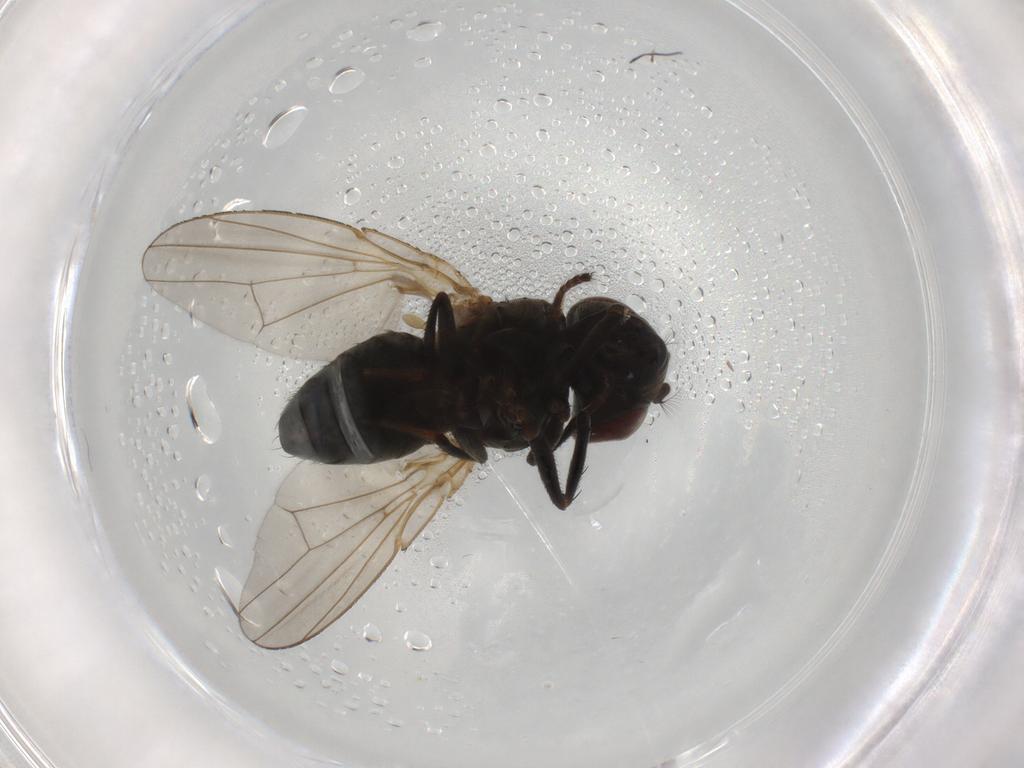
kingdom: Animalia
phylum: Arthropoda
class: Insecta
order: Diptera
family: Ephydridae
